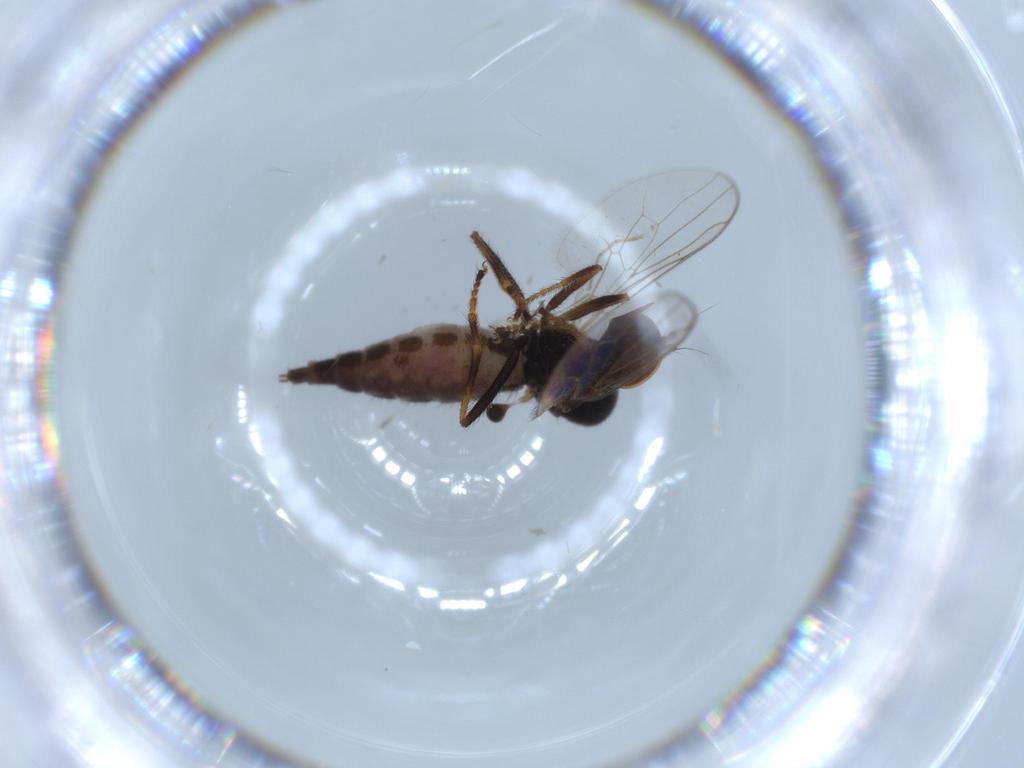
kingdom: Animalia
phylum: Arthropoda
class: Insecta
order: Diptera
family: Hybotidae
